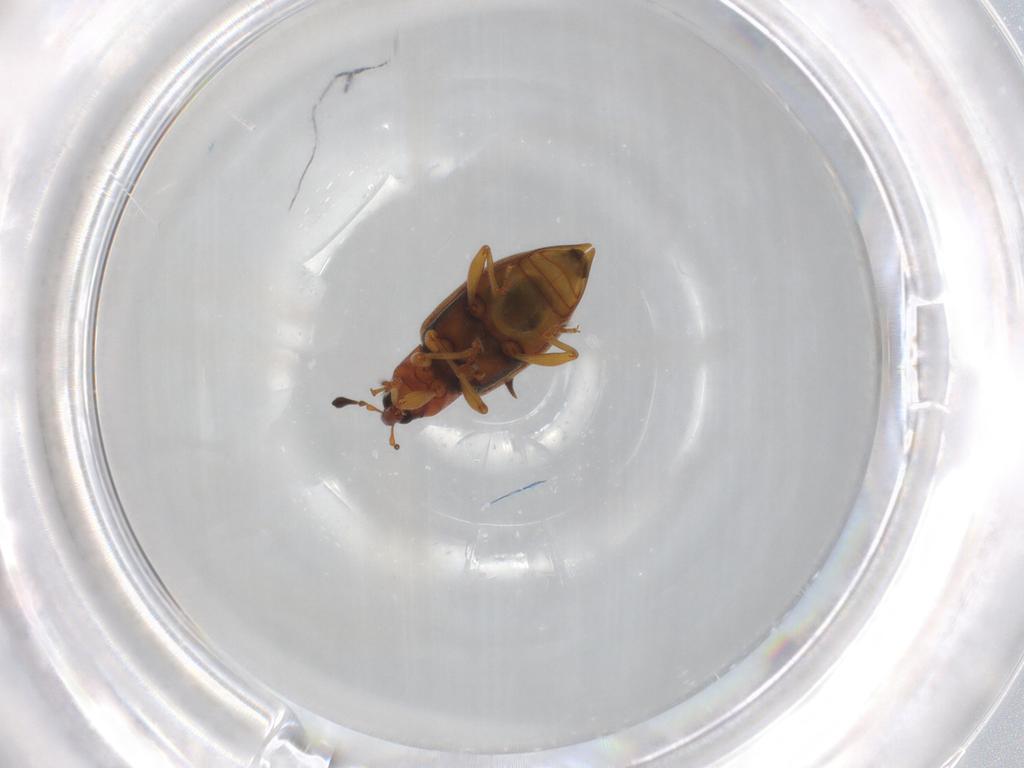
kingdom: Animalia
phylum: Arthropoda
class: Insecta
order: Coleoptera
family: Curculionidae
